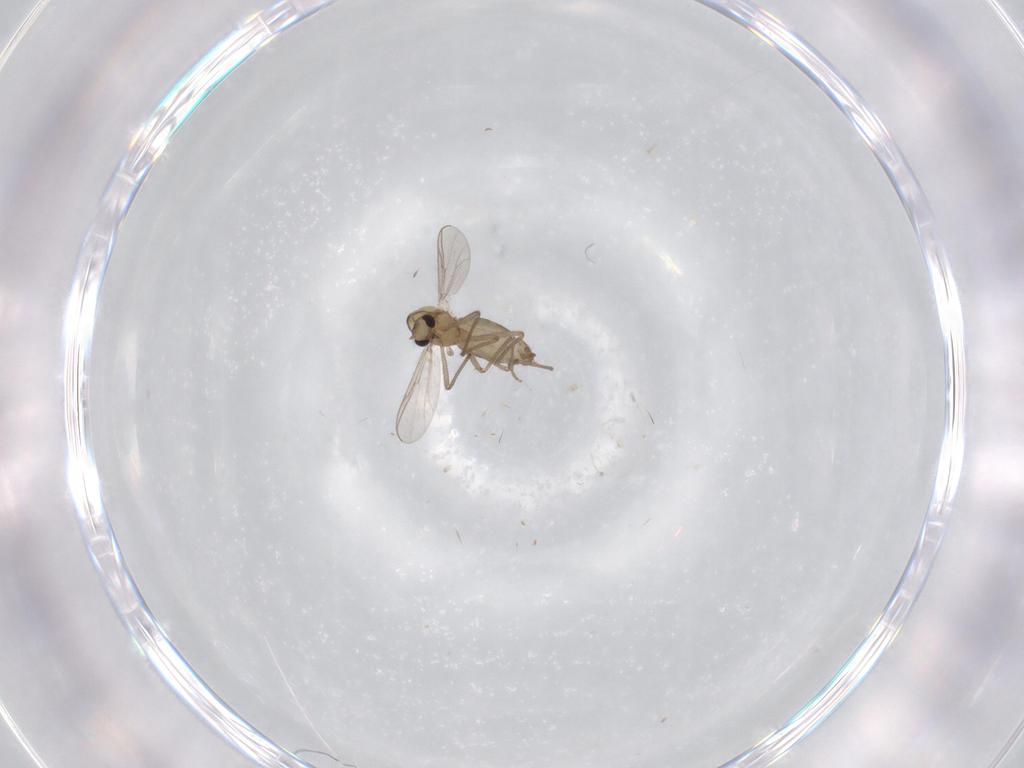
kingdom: Animalia
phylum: Arthropoda
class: Insecta
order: Diptera
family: Chironomidae
